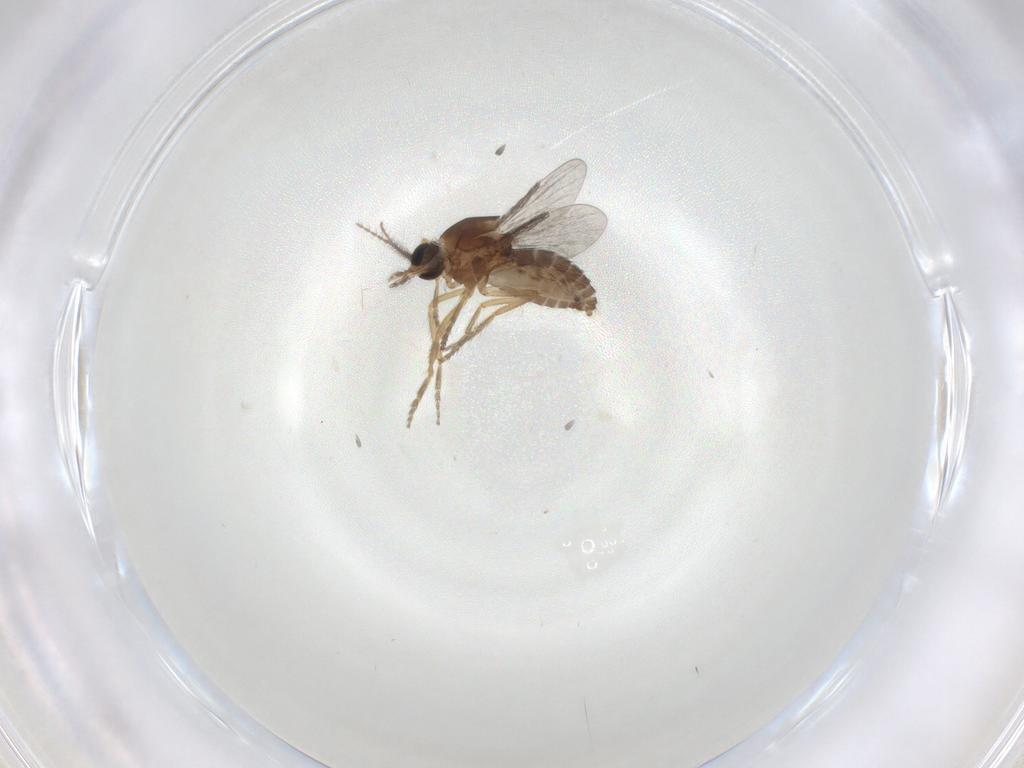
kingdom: Animalia
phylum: Arthropoda
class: Insecta
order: Diptera
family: Ceratopogonidae
